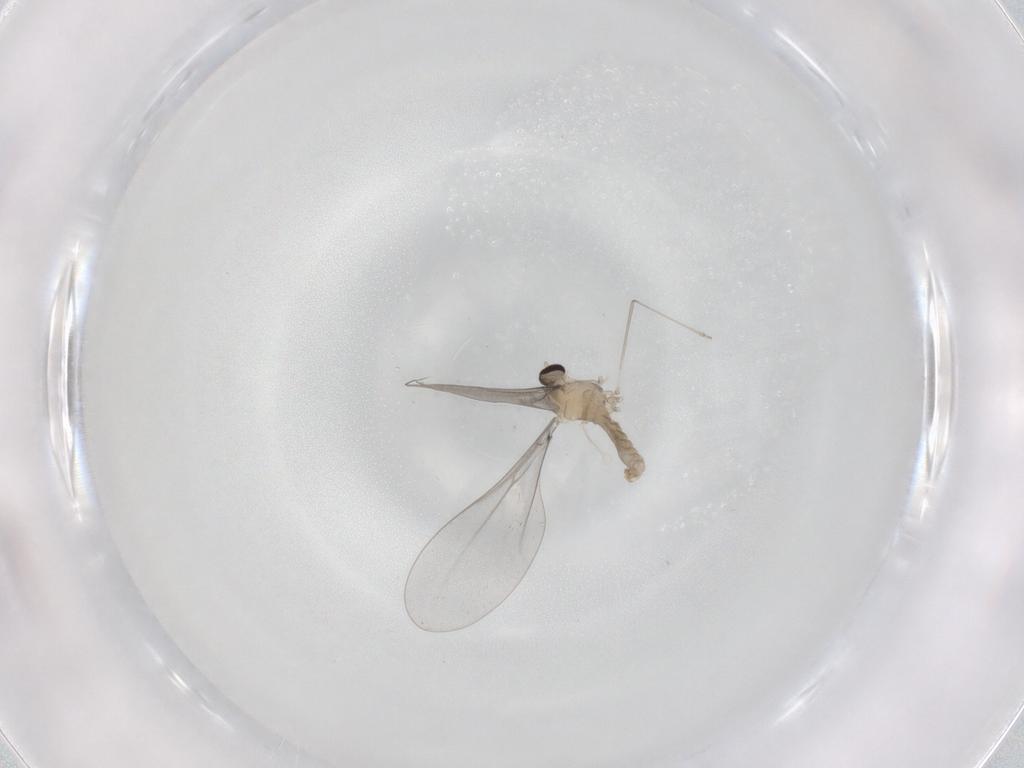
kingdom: Animalia
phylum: Arthropoda
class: Insecta
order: Diptera
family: Cecidomyiidae
